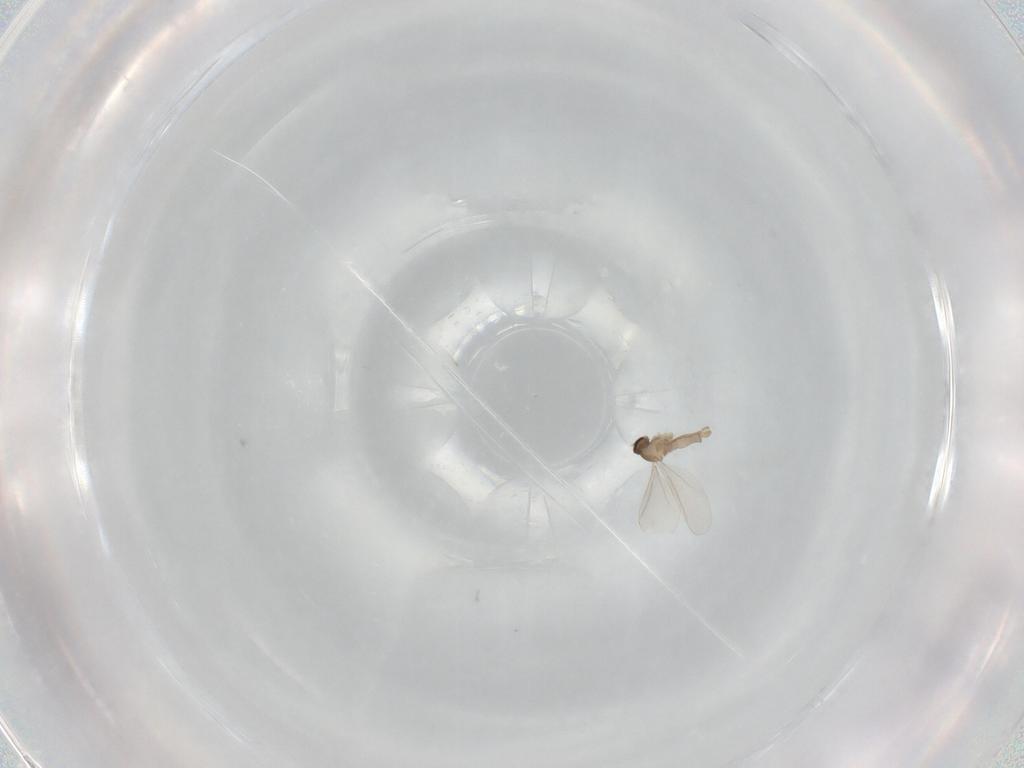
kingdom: Animalia
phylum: Arthropoda
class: Insecta
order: Diptera
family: Cecidomyiidae
